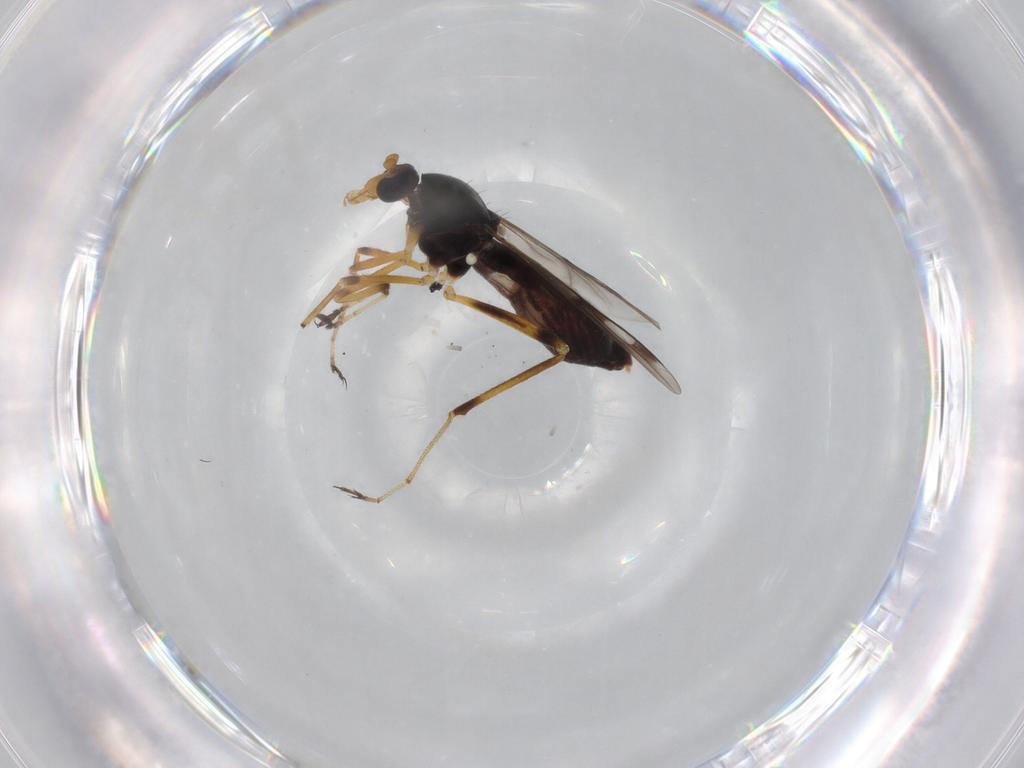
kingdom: Animalia
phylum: Arthropoda
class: Insecta
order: Diptera
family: Ceratopogonidae
